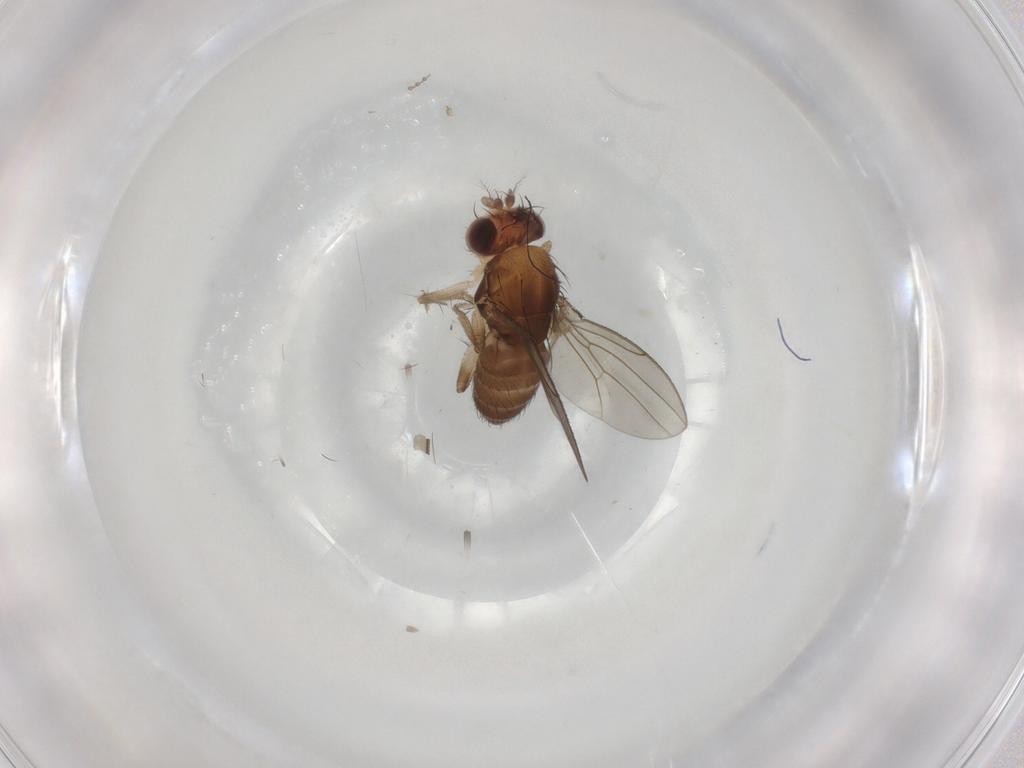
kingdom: Animalia
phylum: Arthropoda
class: Insecta
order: Diptera
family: Drosophilidae
